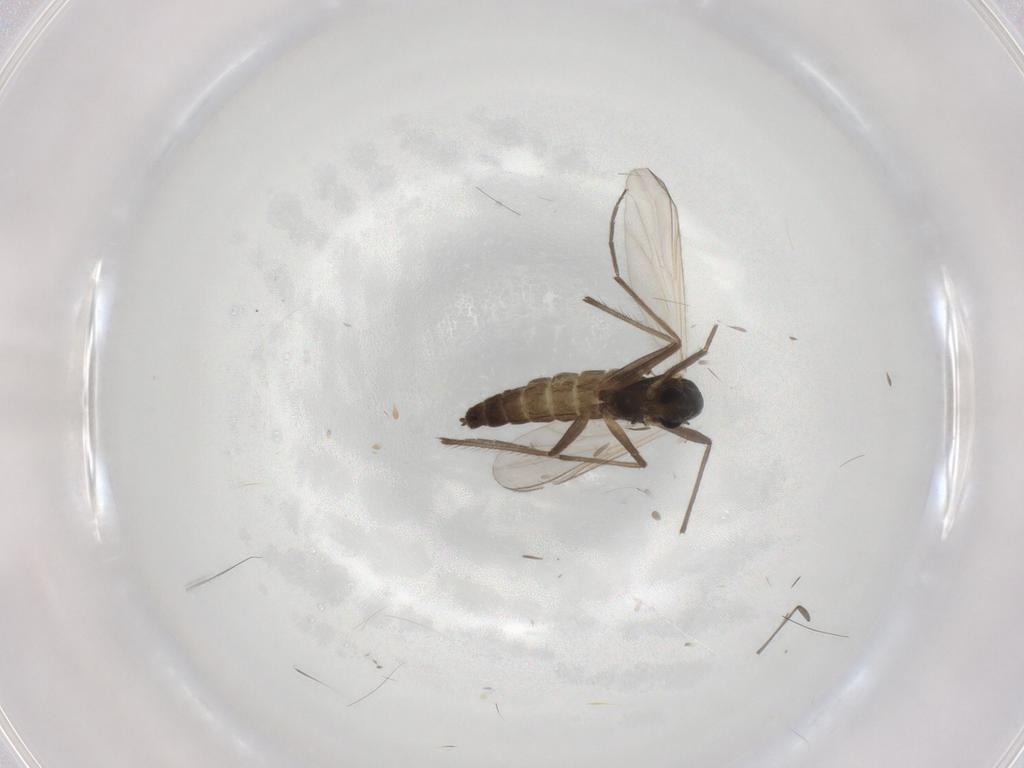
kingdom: Animalia
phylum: Arthropoda
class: Insecta
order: Diptera
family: Chironomidae
